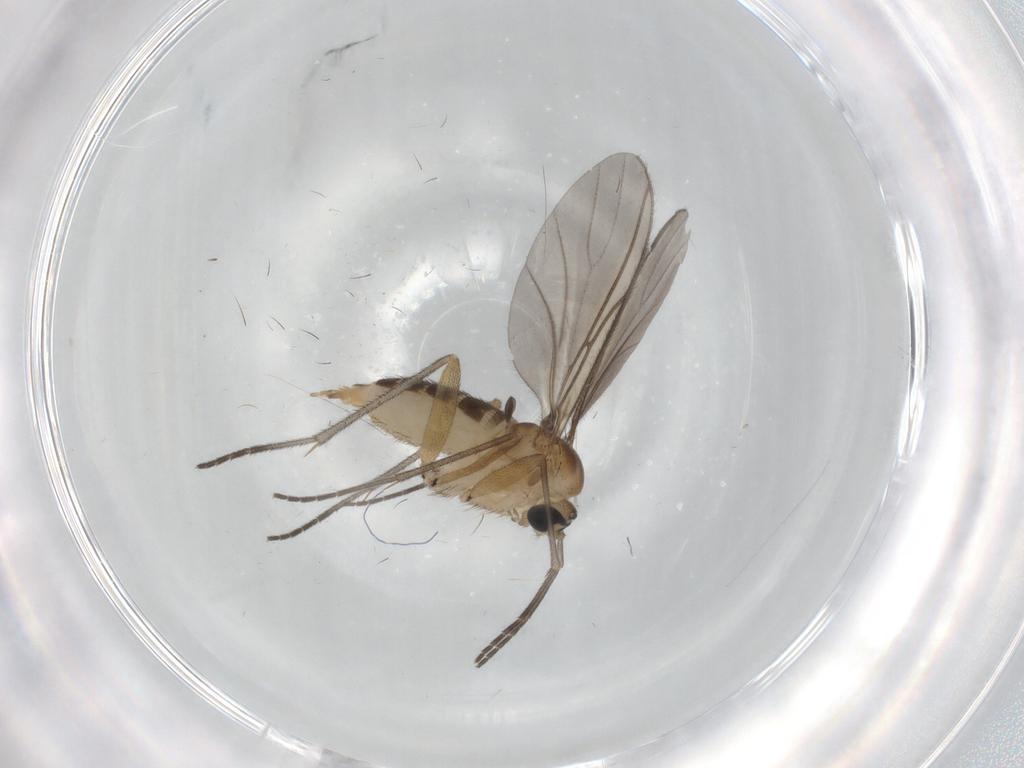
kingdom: Animalia
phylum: Arthropoda
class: Insecta
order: Diptera
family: Sciaridae
